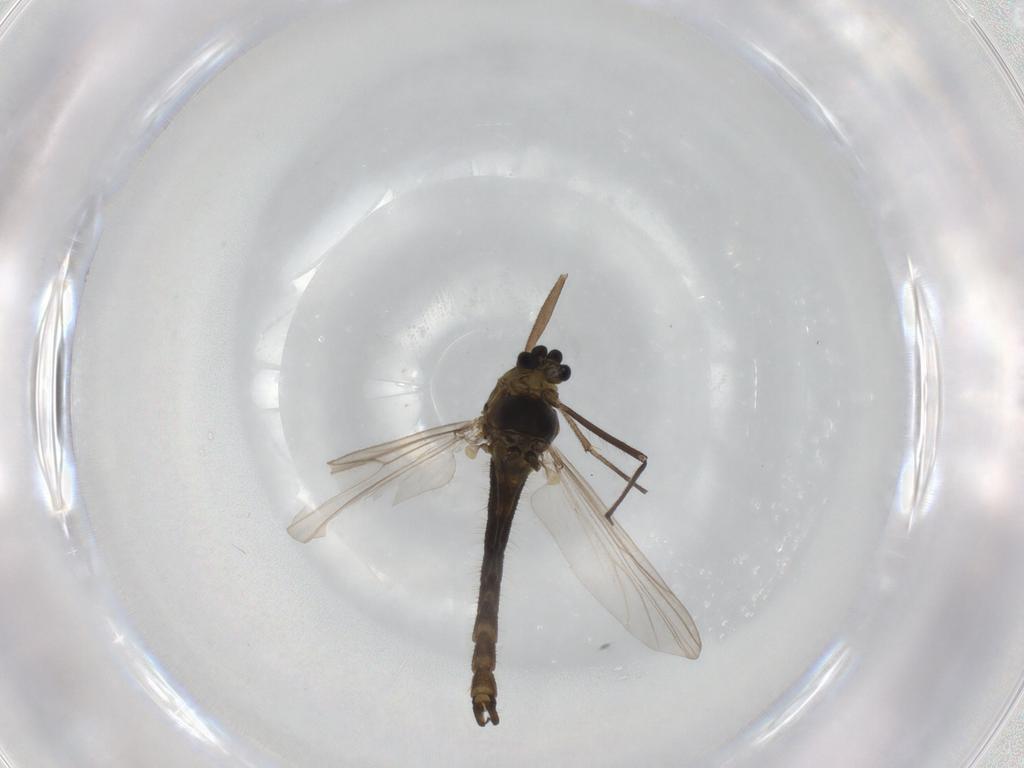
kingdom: Animalia
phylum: Arthropoda
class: Insecta
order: Diptera
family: Chironomidae
